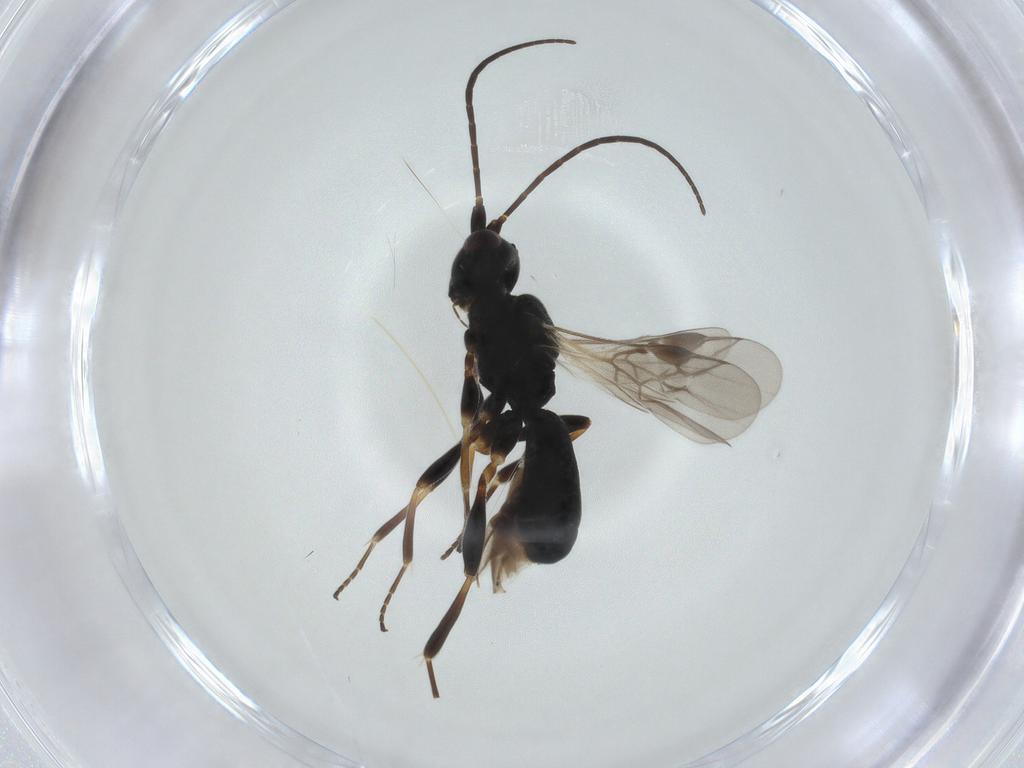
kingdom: Animalia
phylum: Arthropoda
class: Insecta
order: Hymenoptera
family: Braconidae
